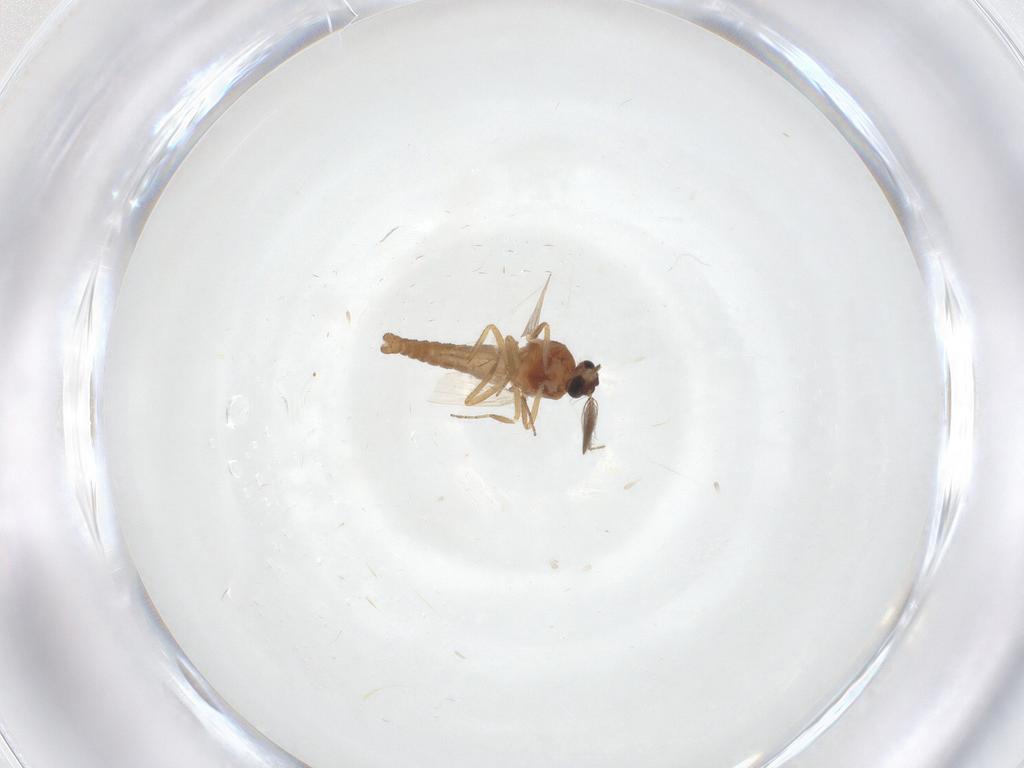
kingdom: Animalia
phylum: Arthropoda
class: Insecta
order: Diptera
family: Ceratopogonidae
